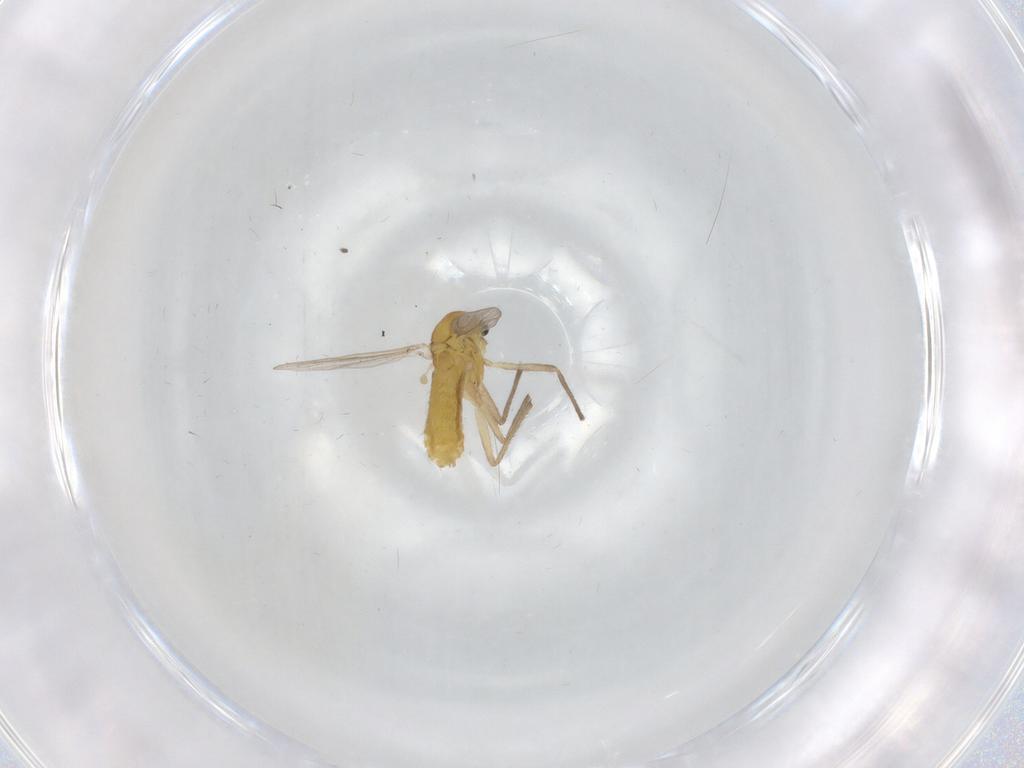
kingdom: Animalia
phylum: Arthropoda
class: Insecta
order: Diptera
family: Chironomidae
